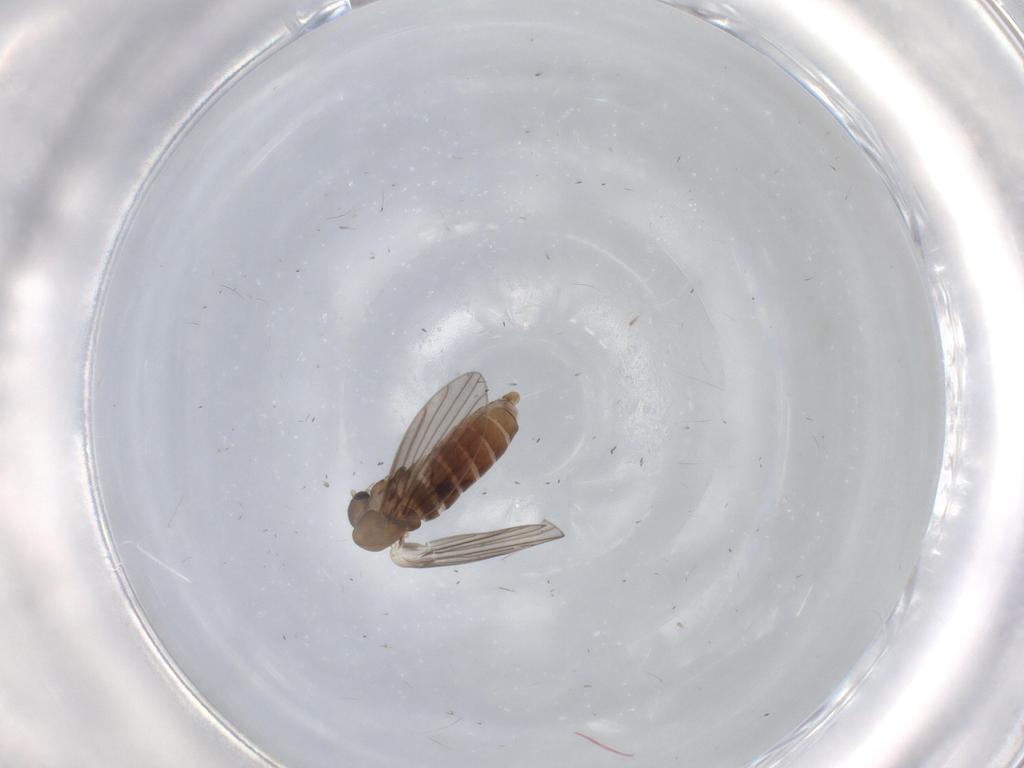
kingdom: Animalia
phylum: Arthropoda
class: Insecta
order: Diptera
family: Psychodidae
